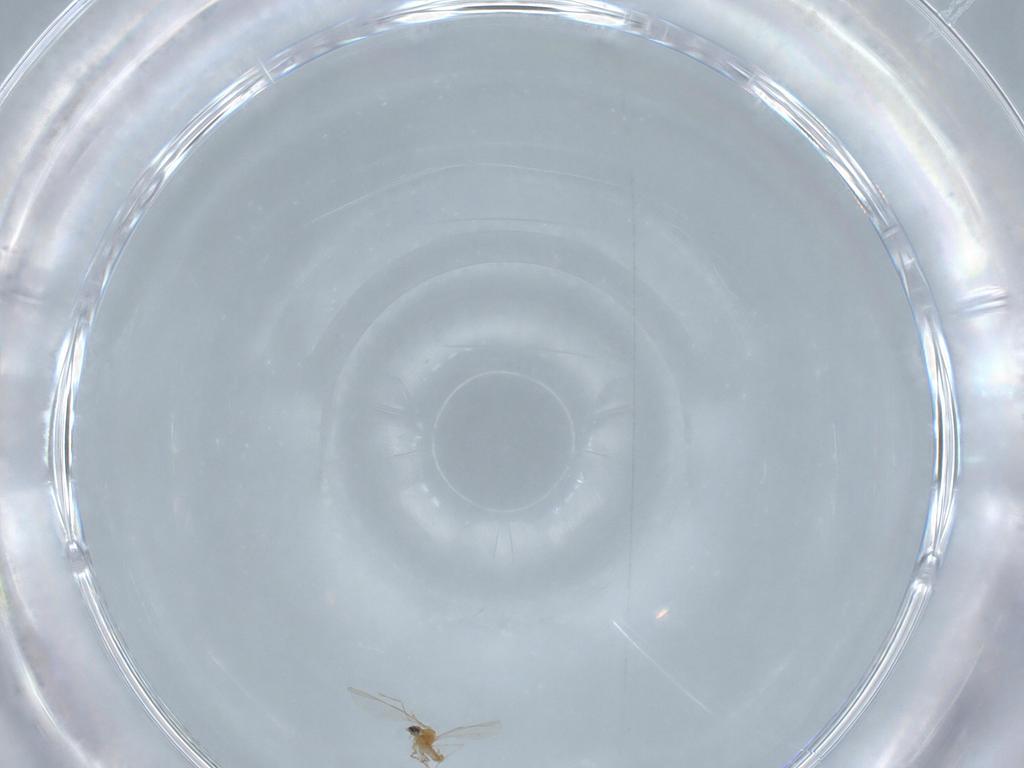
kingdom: Animalia
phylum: Arthropoda
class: Insecta
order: Diptera
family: Cecidomyiidae
